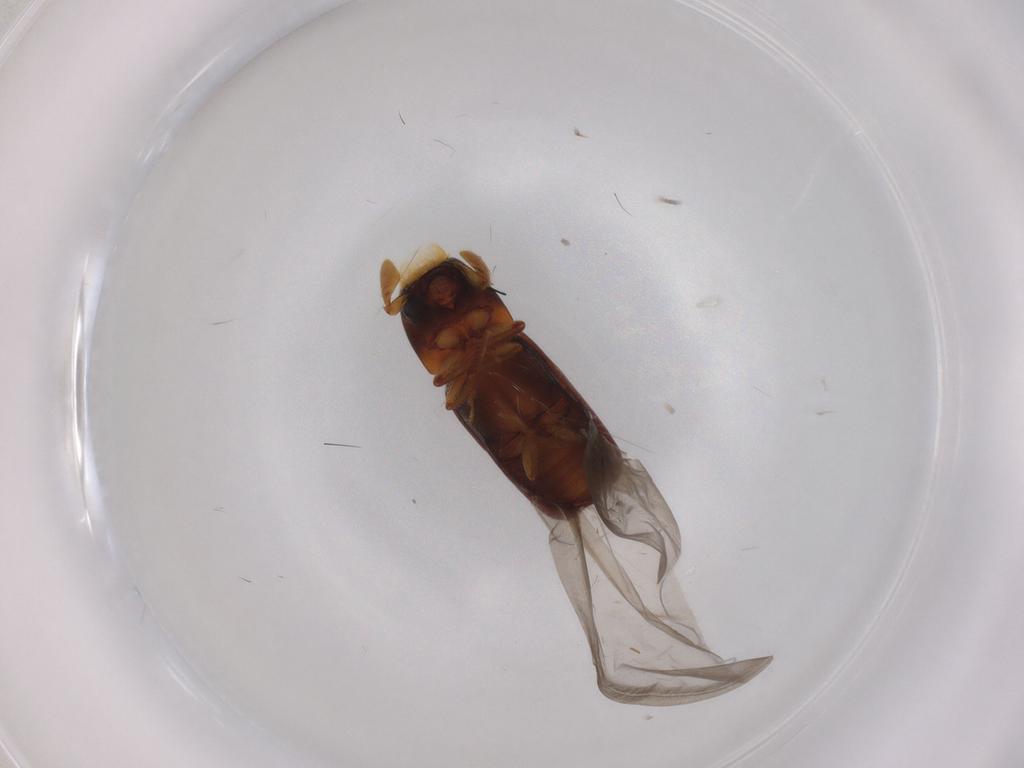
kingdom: Animalia
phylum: Arthropoda
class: Insecta
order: Coleoptera
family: Curculionidae
